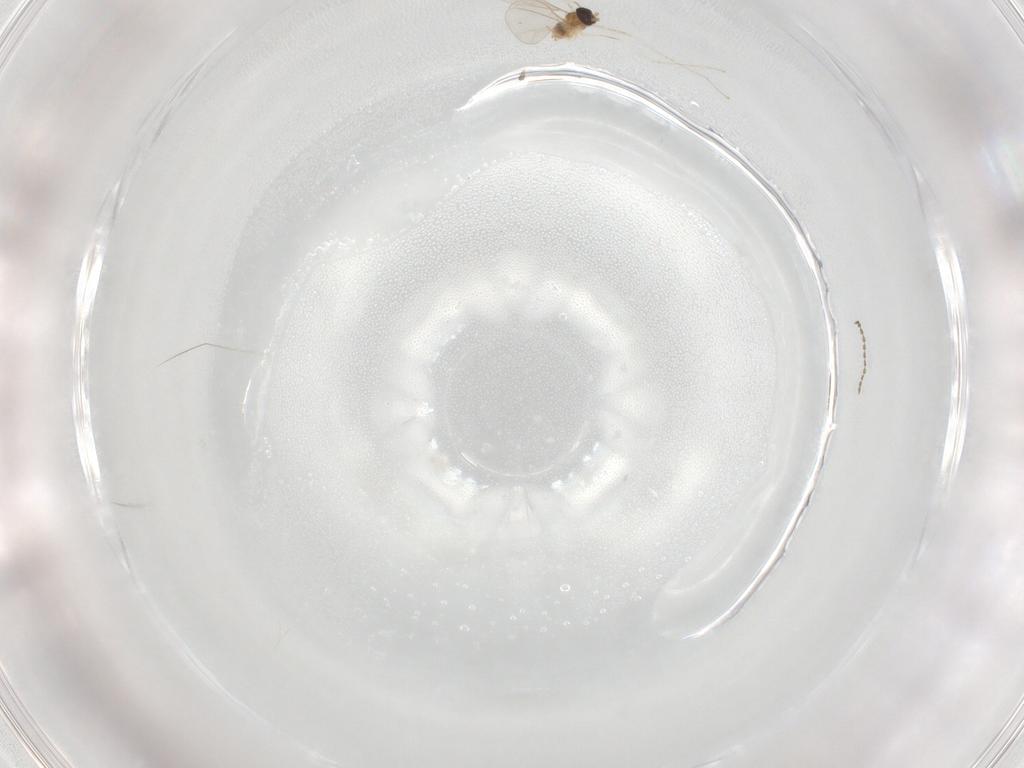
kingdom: Animalia
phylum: Arthropoda
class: Insecta
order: Diptera
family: Cecidomyiidae
